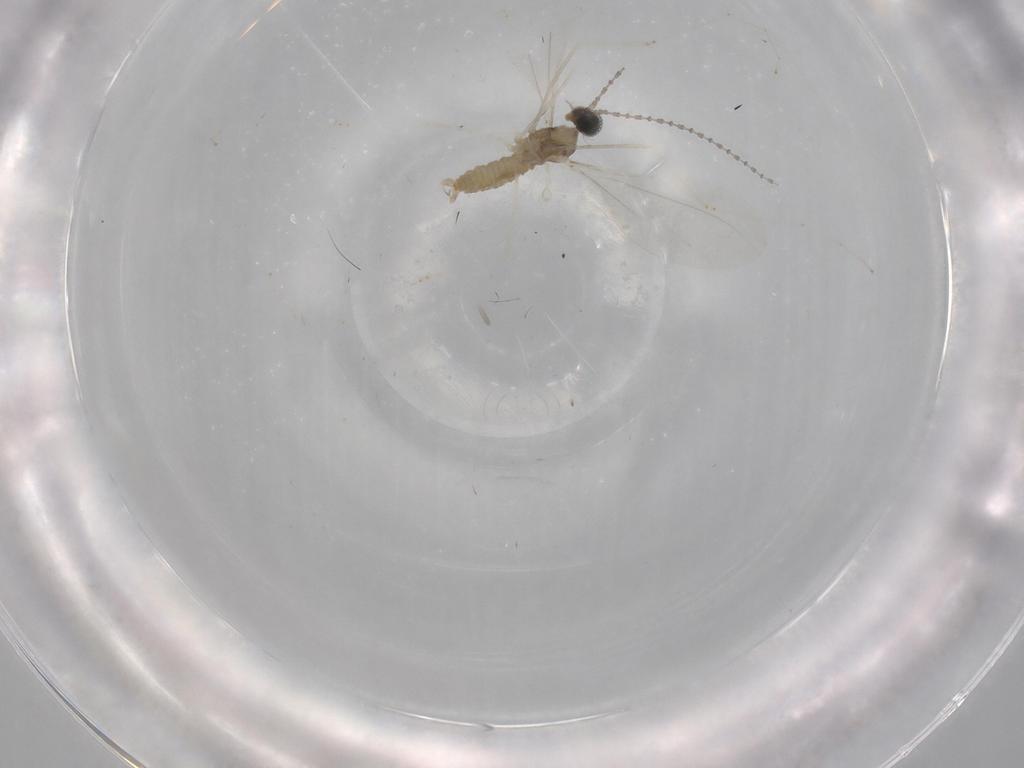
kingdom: Animalia
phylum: Arthropoda
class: Insecta
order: Diptera
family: Cecidomyiidae
